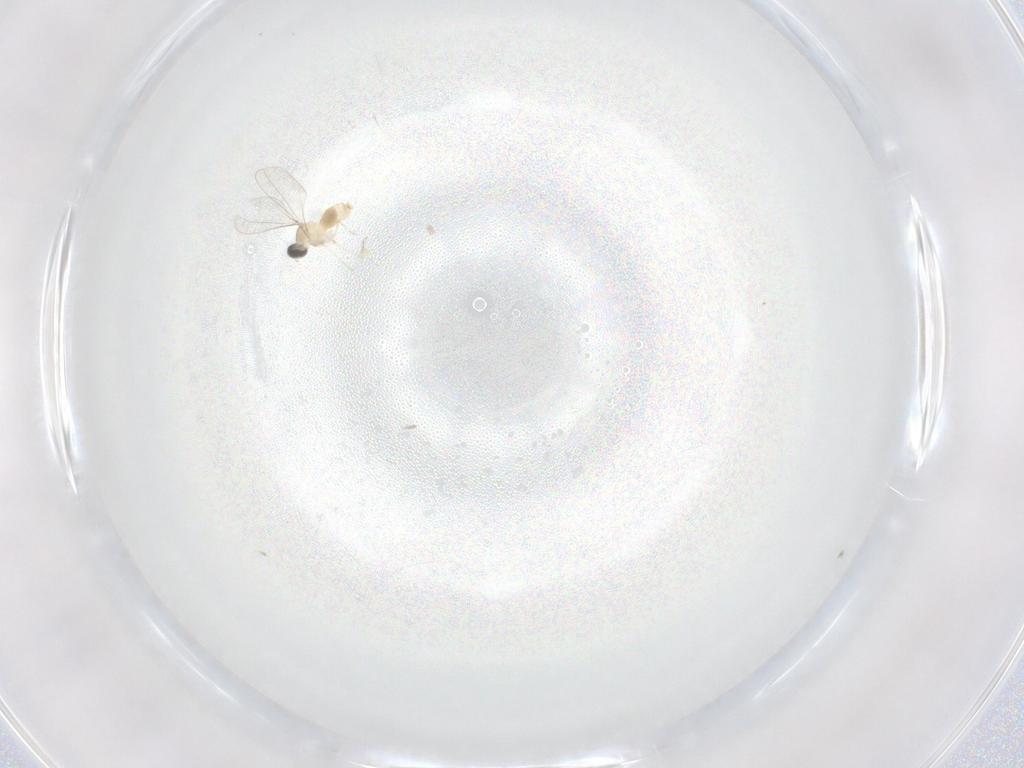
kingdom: Animalia
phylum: Arthropoda
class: Insecta
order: Diptera
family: Cecidomyiidae
